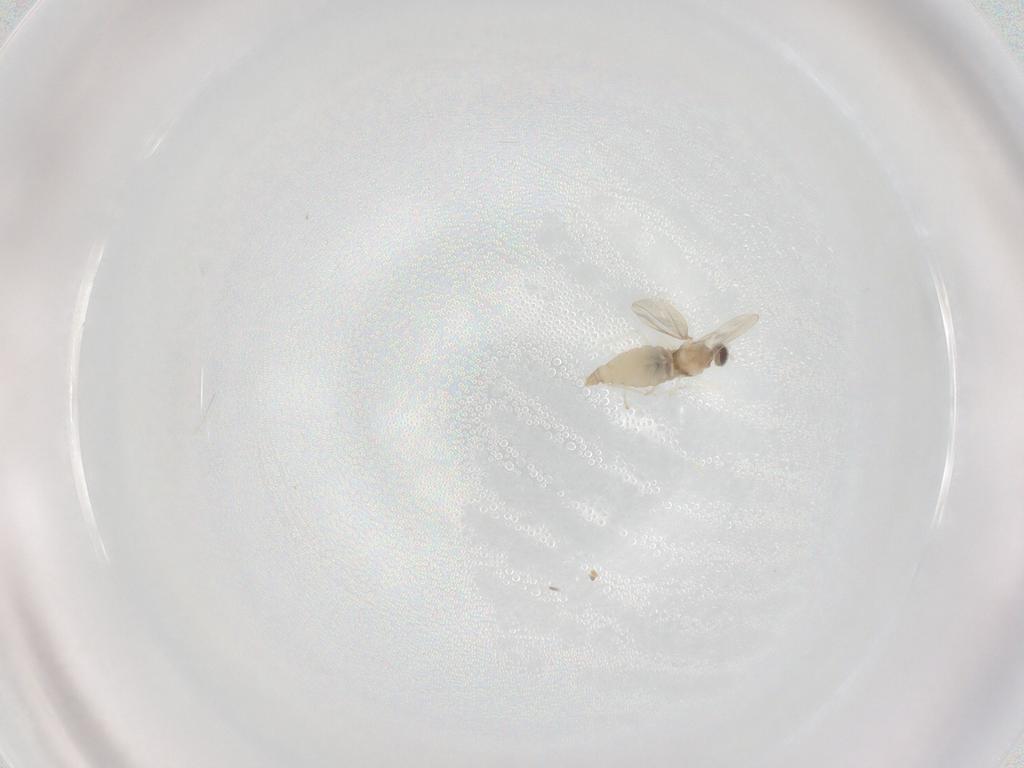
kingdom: Animalia
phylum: Arthropoda
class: Insecta
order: Diptera
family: Cecidomyiidae
